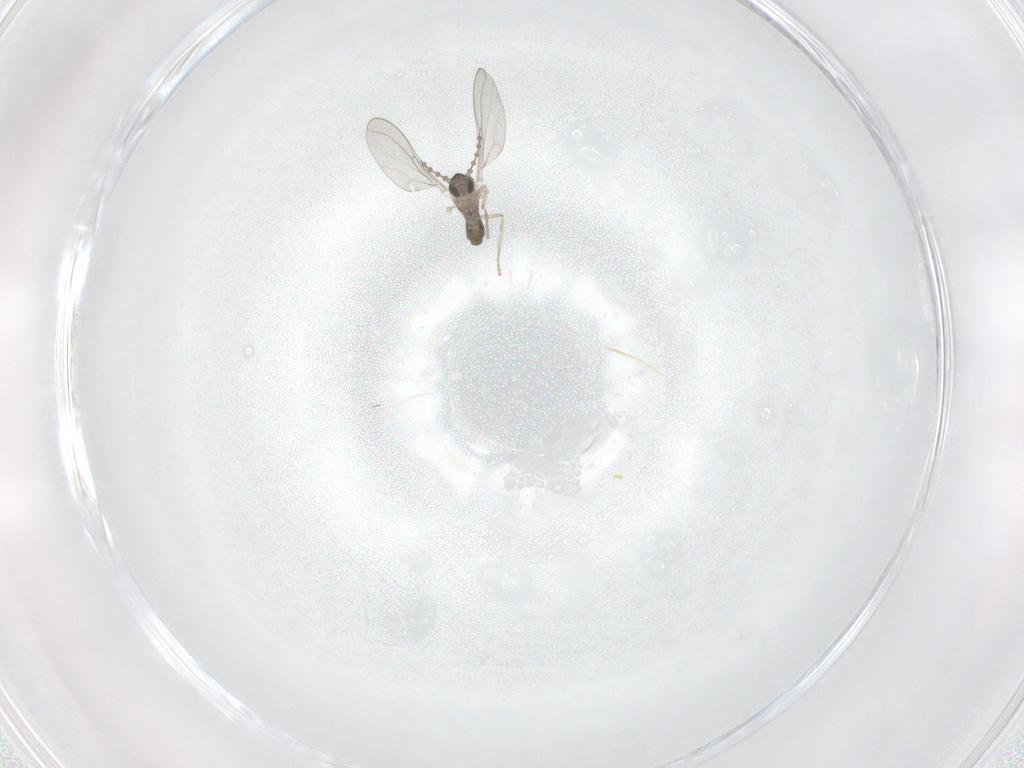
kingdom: Animalia
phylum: Arthropoda
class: Insecta
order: Diptera
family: Cecidomyiidae
